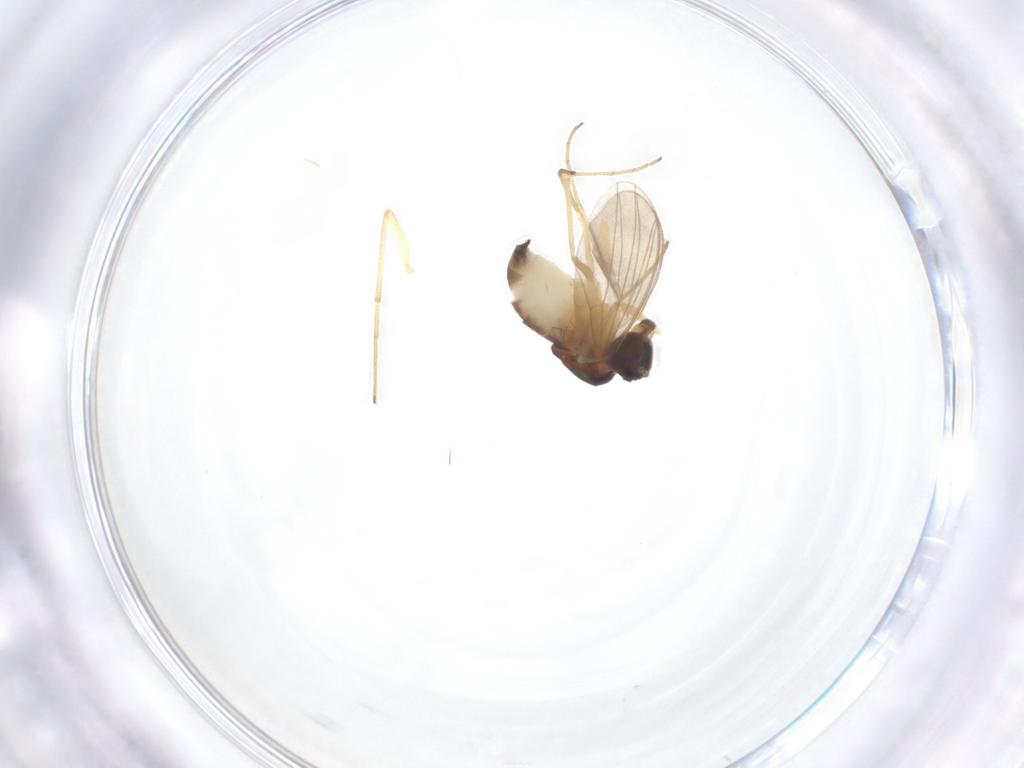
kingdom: Animalia
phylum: Arthropoda
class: Insecta
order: Diptera
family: Dolichopodidae
